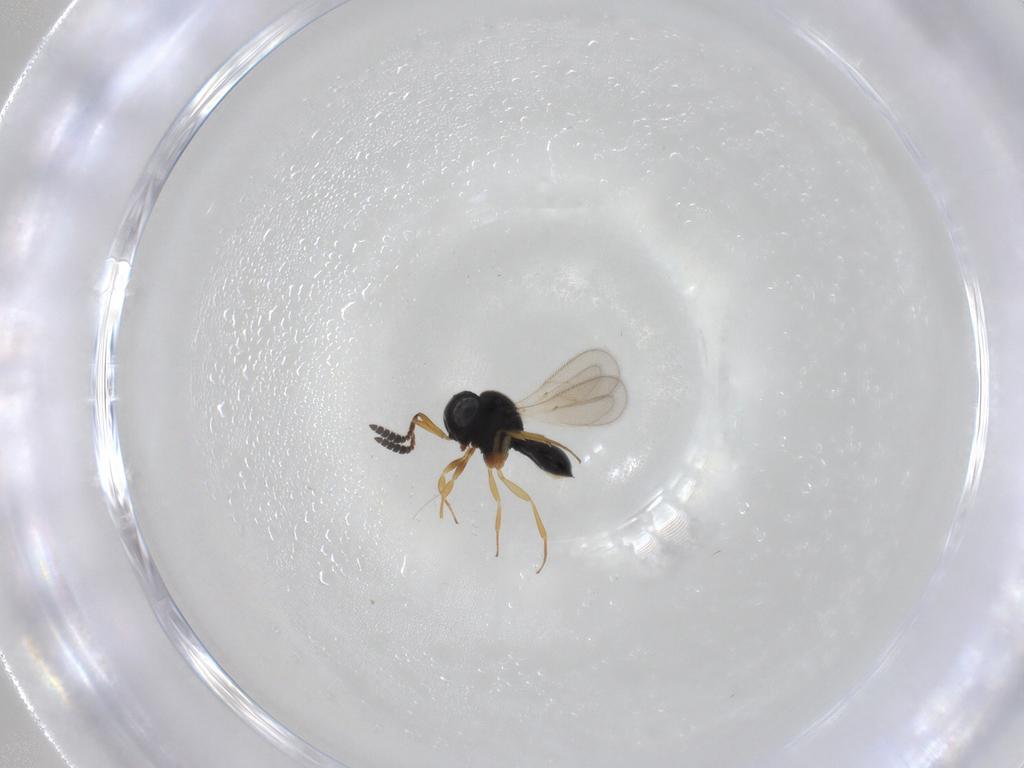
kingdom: Animalia
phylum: Arthropoda
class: Insecta
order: Hymenoptera
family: Scelionidae
